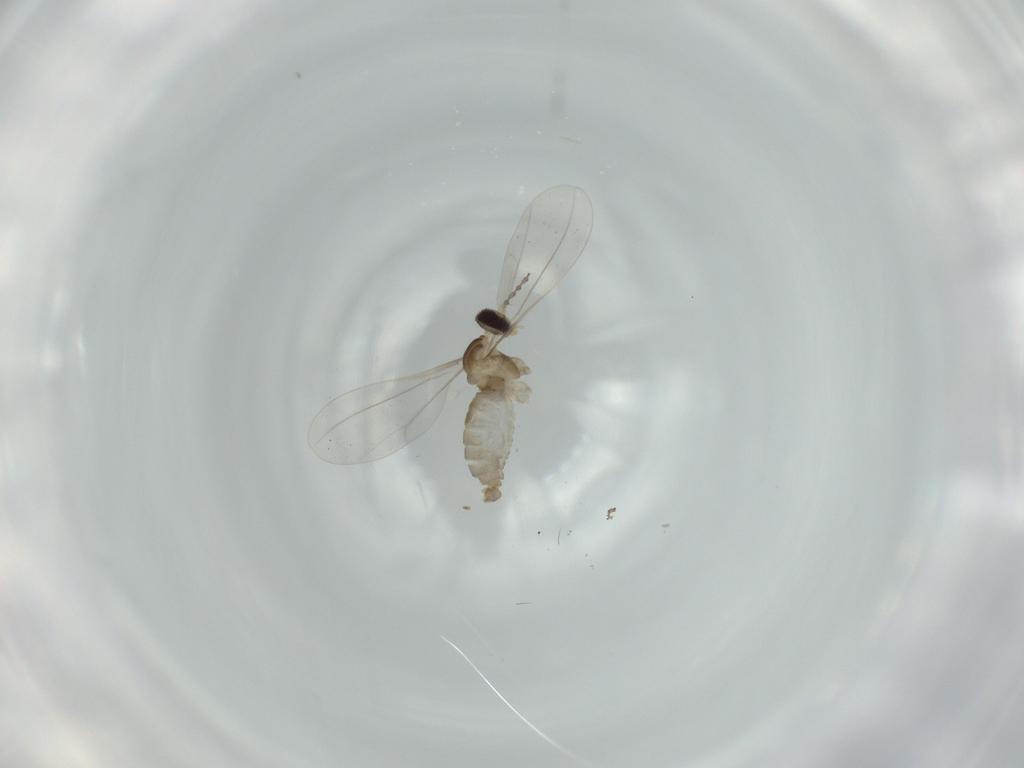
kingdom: Animalia
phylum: Arthropoda
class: Insecta
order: Diptera
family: Cecidomyiidae
